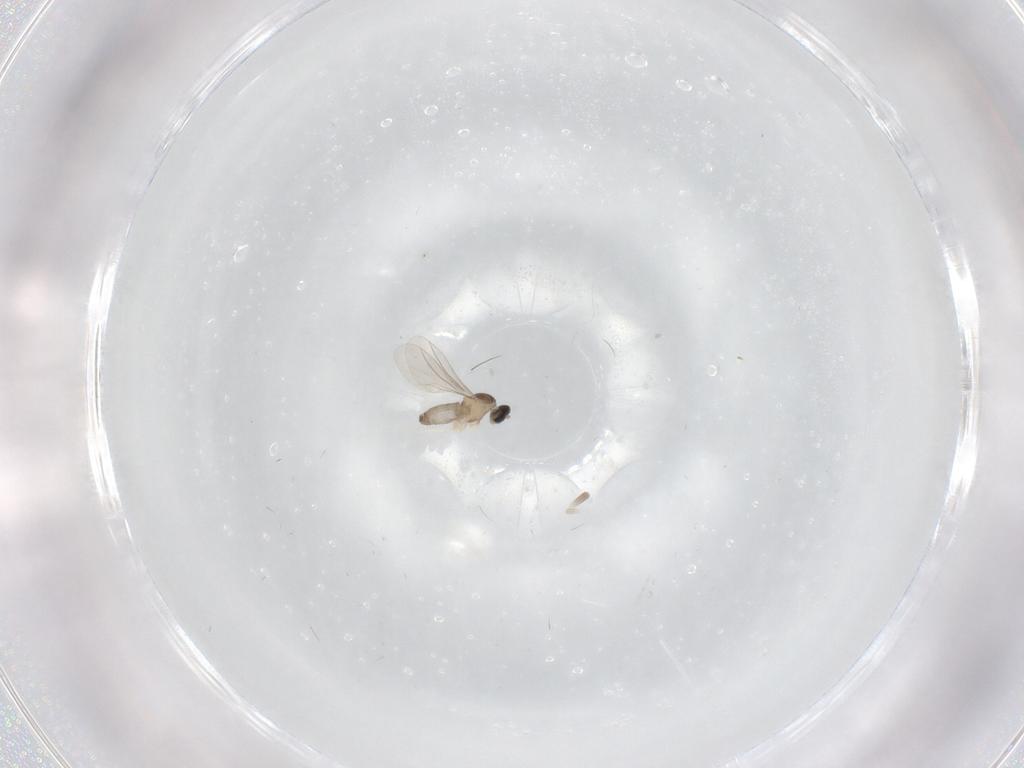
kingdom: Animalia
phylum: Arthropoda
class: Insecta
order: Diptera
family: Cecidomyiidae
